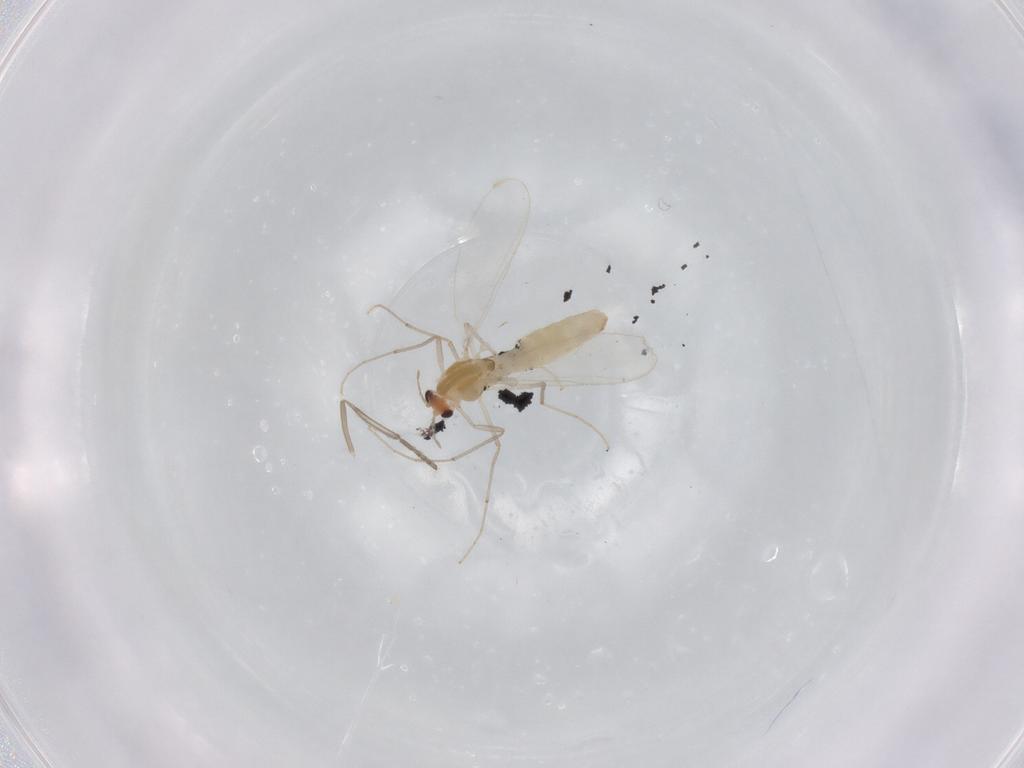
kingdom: Animalia
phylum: Arthropoda
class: Insecta
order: Diptera
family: Chironomidae
